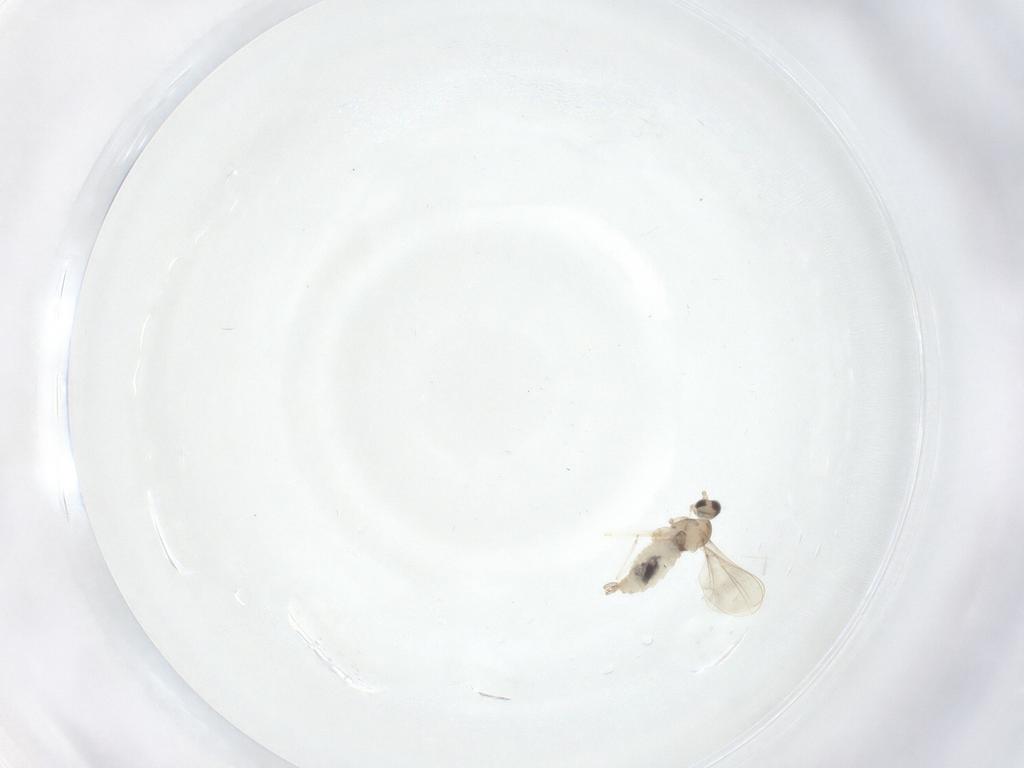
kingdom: Animalia
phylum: Arthropoda
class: Insecta
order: Diptera
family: Cecidomyiidae
